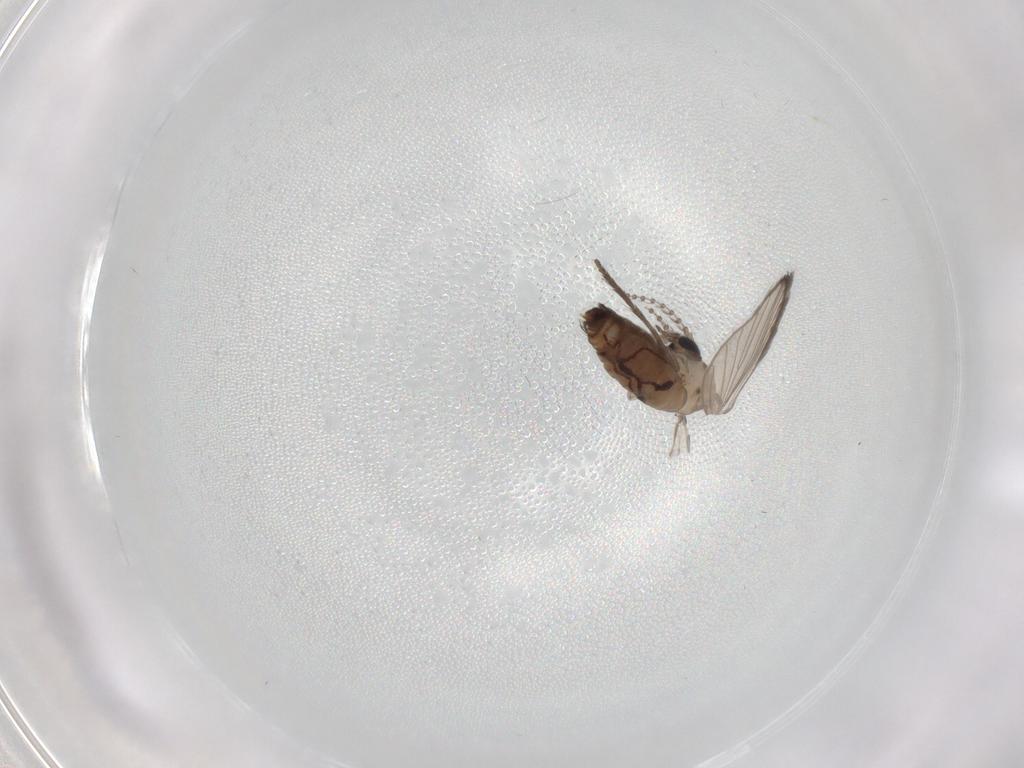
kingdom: Animalia
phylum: Arthropoda
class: Insecta
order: Diptera
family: Psychodidae
